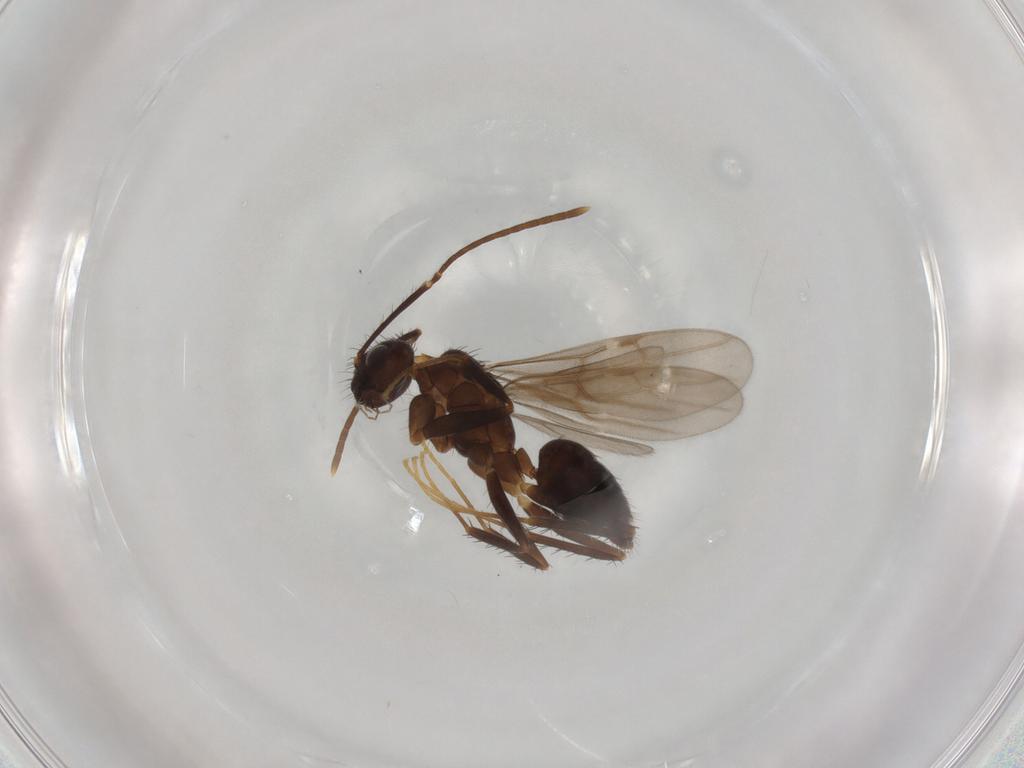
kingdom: Animalia
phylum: Arthropoda
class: Insecta
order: Hymenoptera
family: Formicidae
